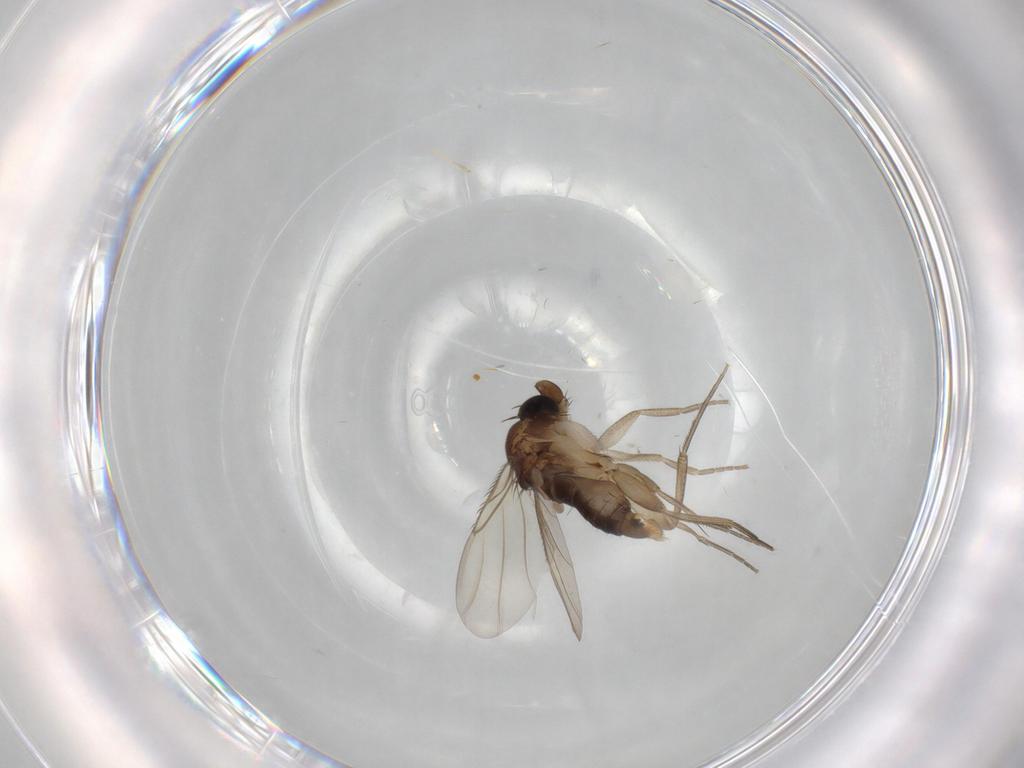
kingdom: Animalia
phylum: Arthropoda
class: Insecta
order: Diptera
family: Phoridae
